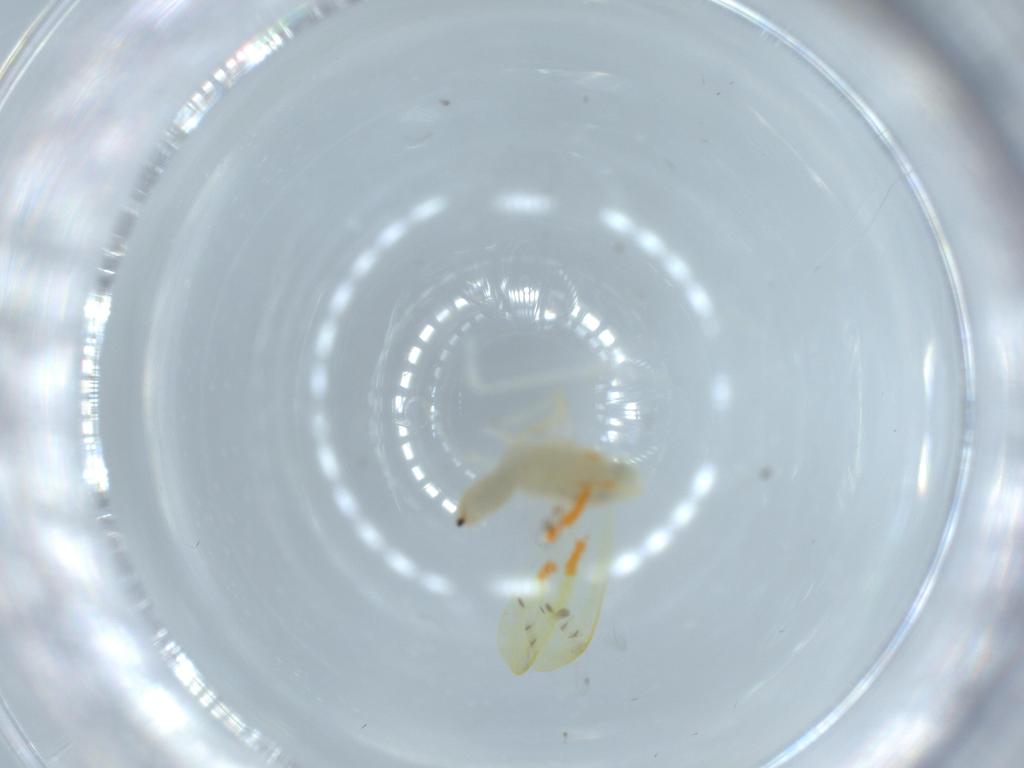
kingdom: Animalia
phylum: Arthropoda
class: Insecta
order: Hemiptera
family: Cicadellidae
